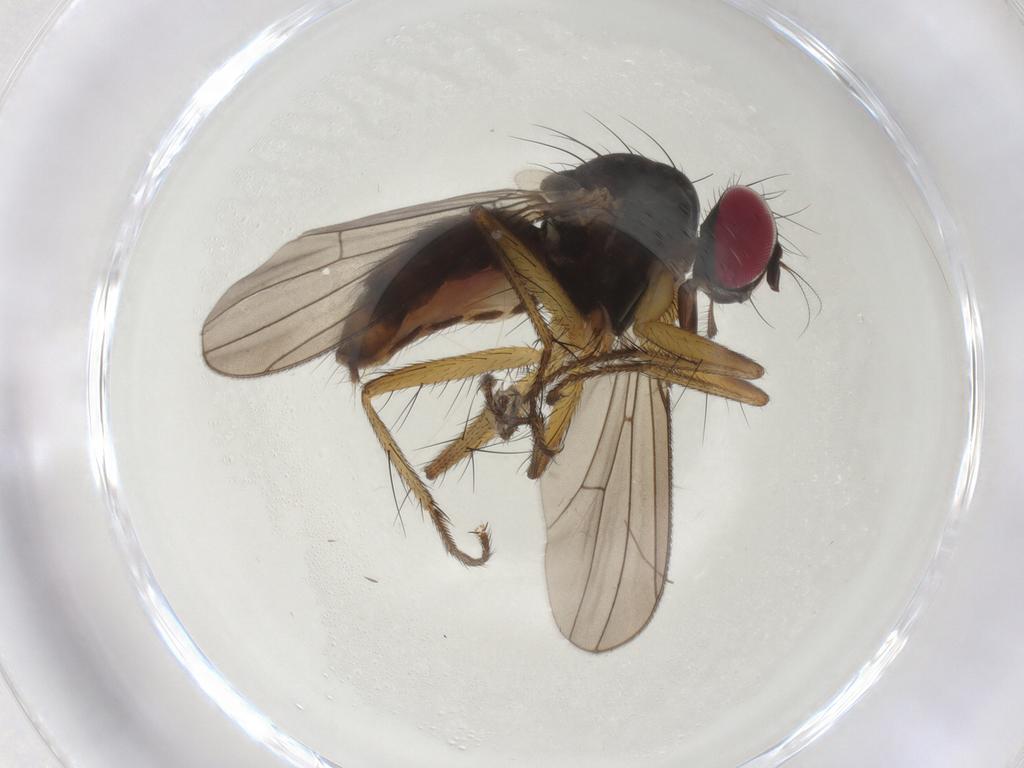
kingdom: Animalia
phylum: Arthropoda
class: Insecta
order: Diptera
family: Anthomyiidae
